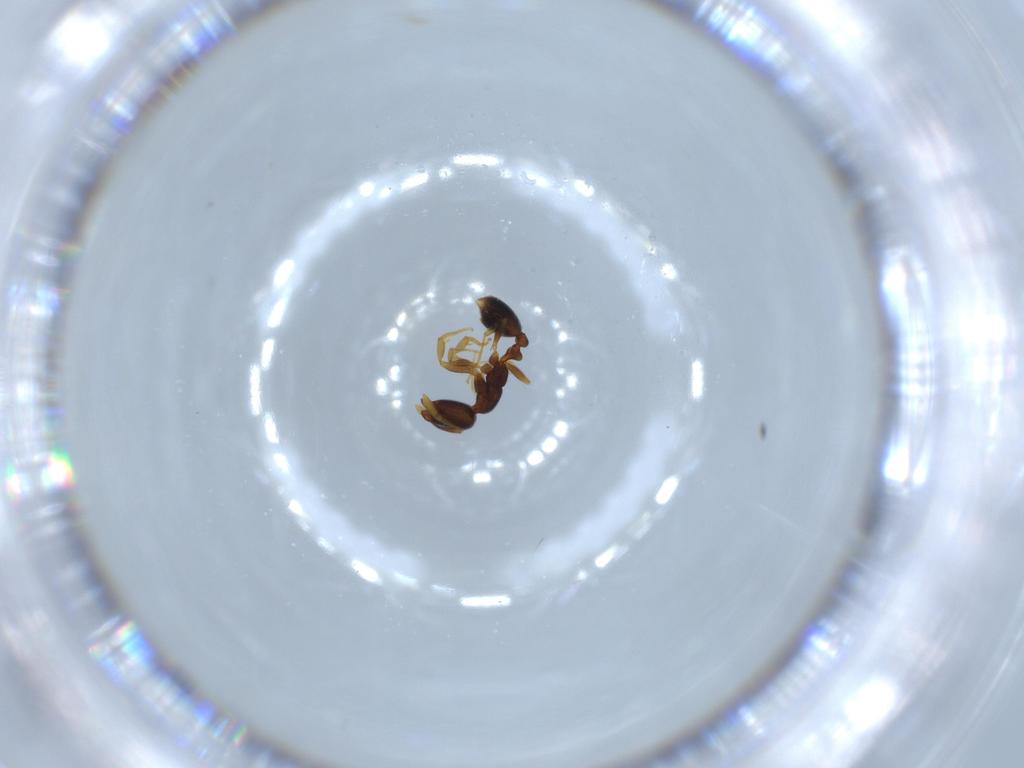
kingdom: Animalia
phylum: Arthropoda
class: Insecta
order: Hymenoptera
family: Formicidae
